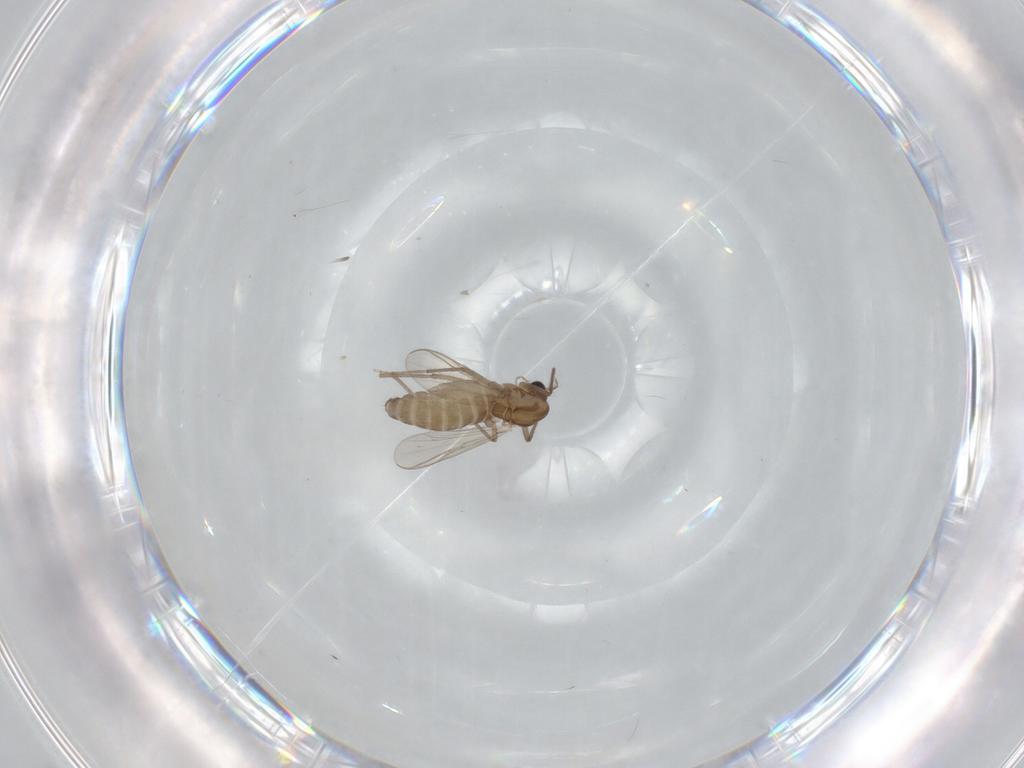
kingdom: Animalia
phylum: Arthropoda
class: Insecta
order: Diptera
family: Chironomidae
